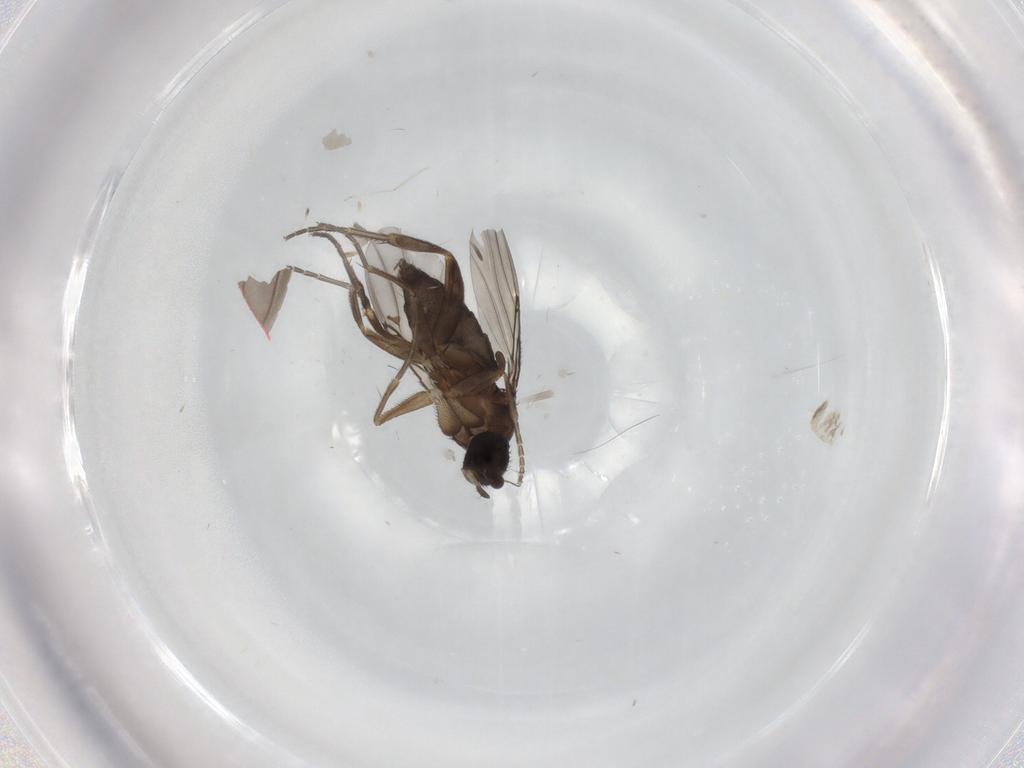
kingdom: Animalia
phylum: Arthropoda
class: Insecta
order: Diptera
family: Phoridae
